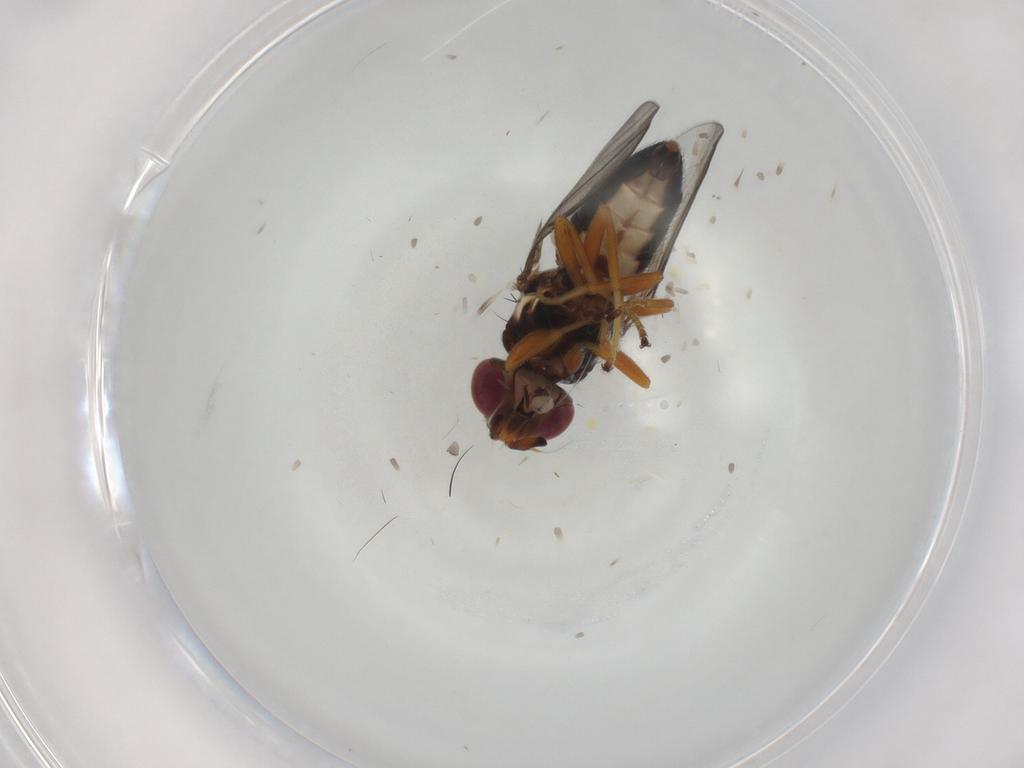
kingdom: Animalia
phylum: Arthropoda
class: Insecta
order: Diptera
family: Chloropidae
